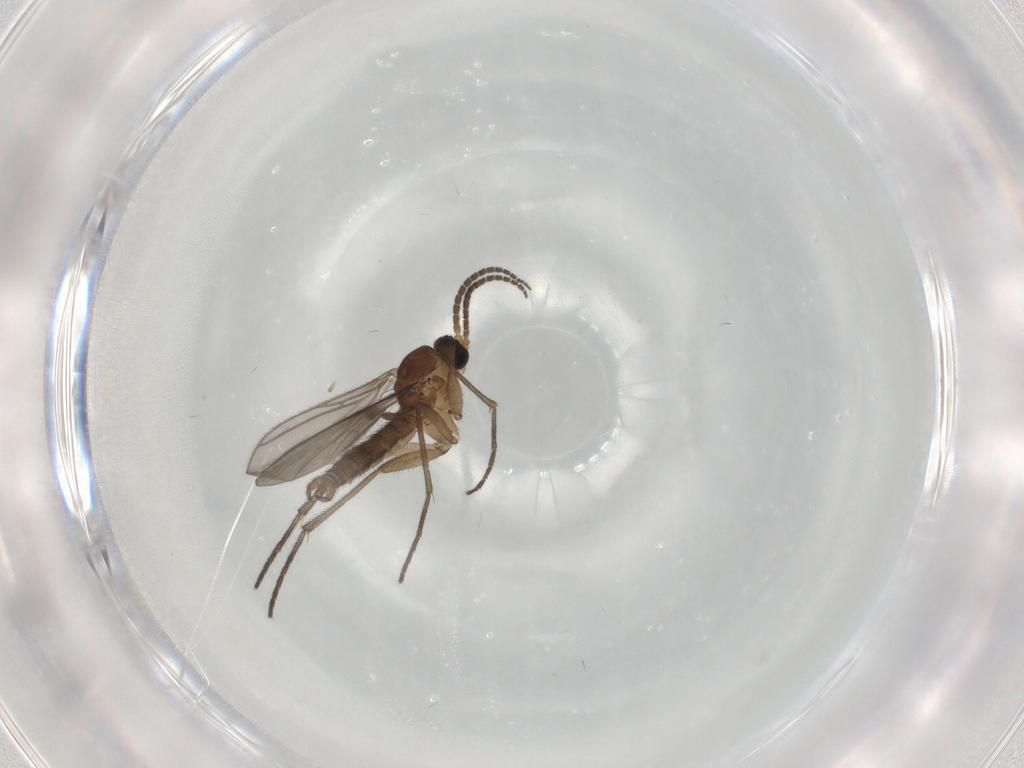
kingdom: Animalia
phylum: Arthropoda
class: Insecta
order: Diptera
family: Sciaridae
